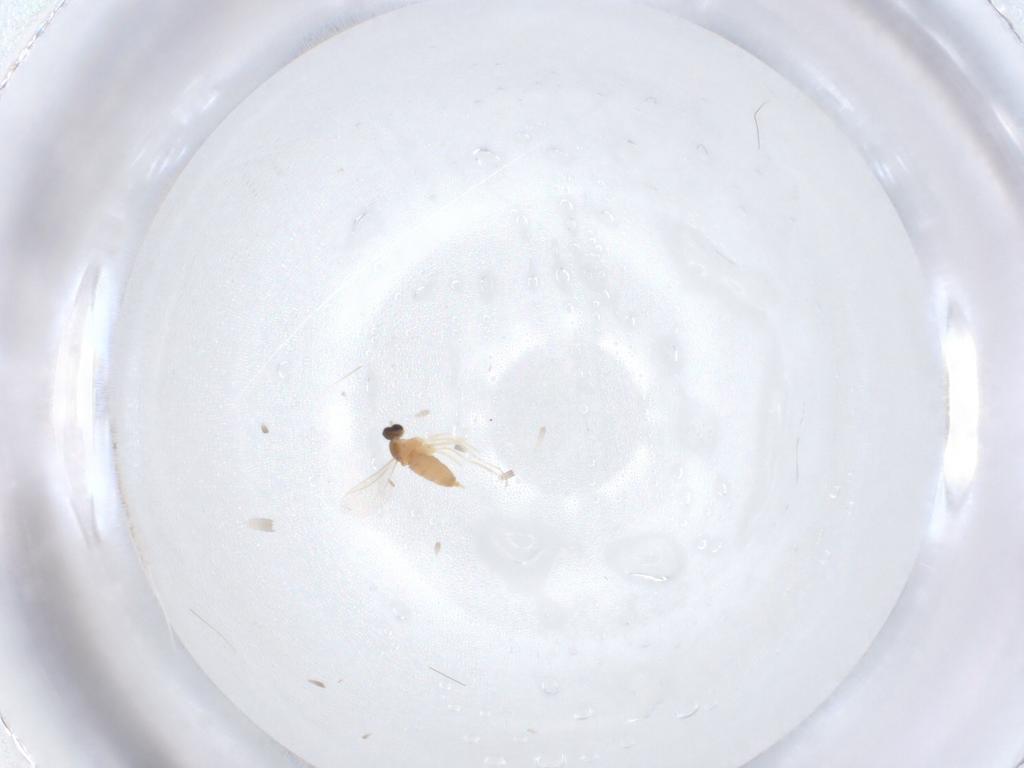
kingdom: Animalia
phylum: Arthropoda
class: Insecta
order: Diptera
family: Cecidomyiidae
